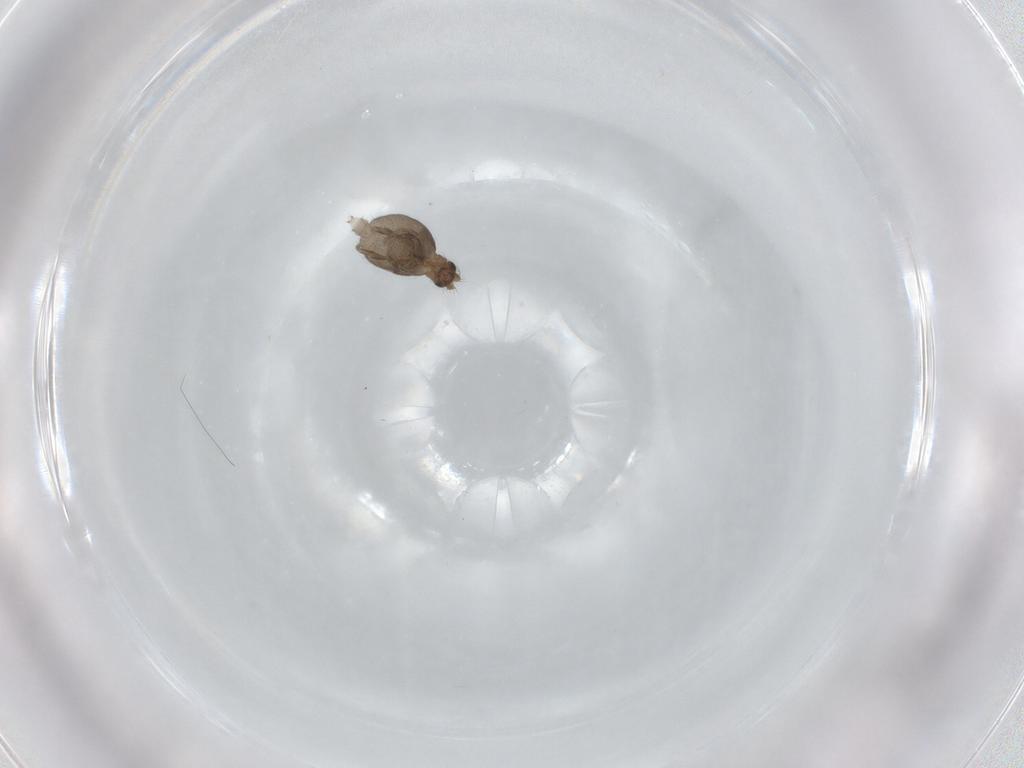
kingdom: Animalia
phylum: Arthropoda
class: Insecta
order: Diptera
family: Phoridae
